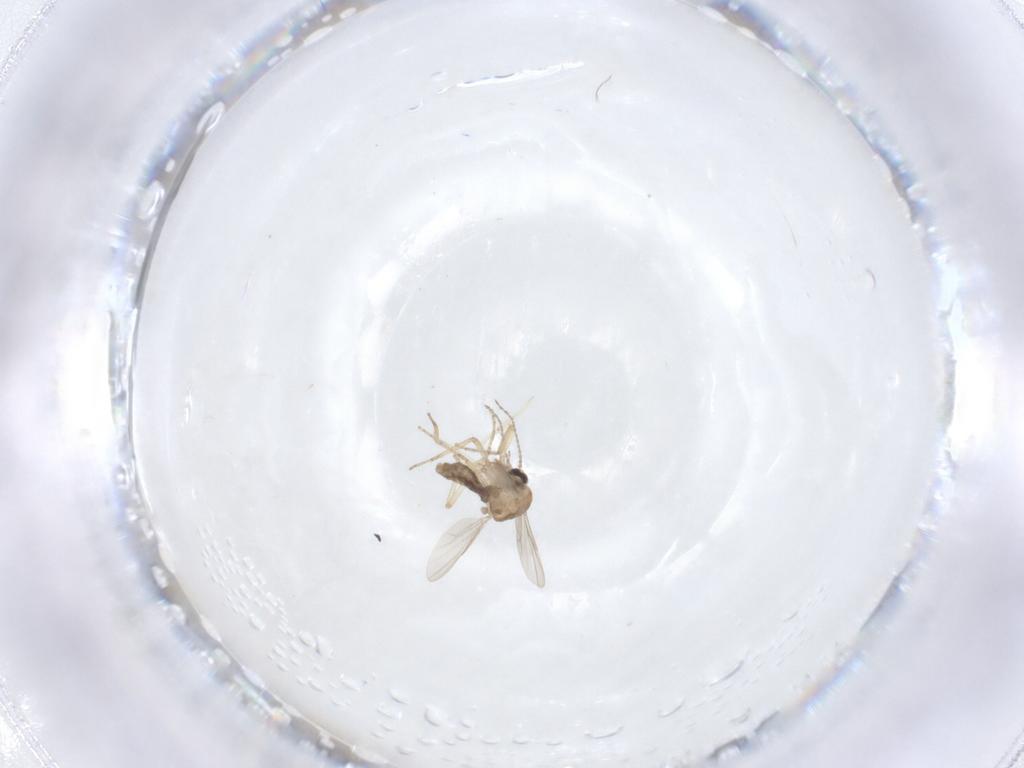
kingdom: Animalia
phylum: Arthropoda
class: Insecta
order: Diptera
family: Ceratopogonidae
